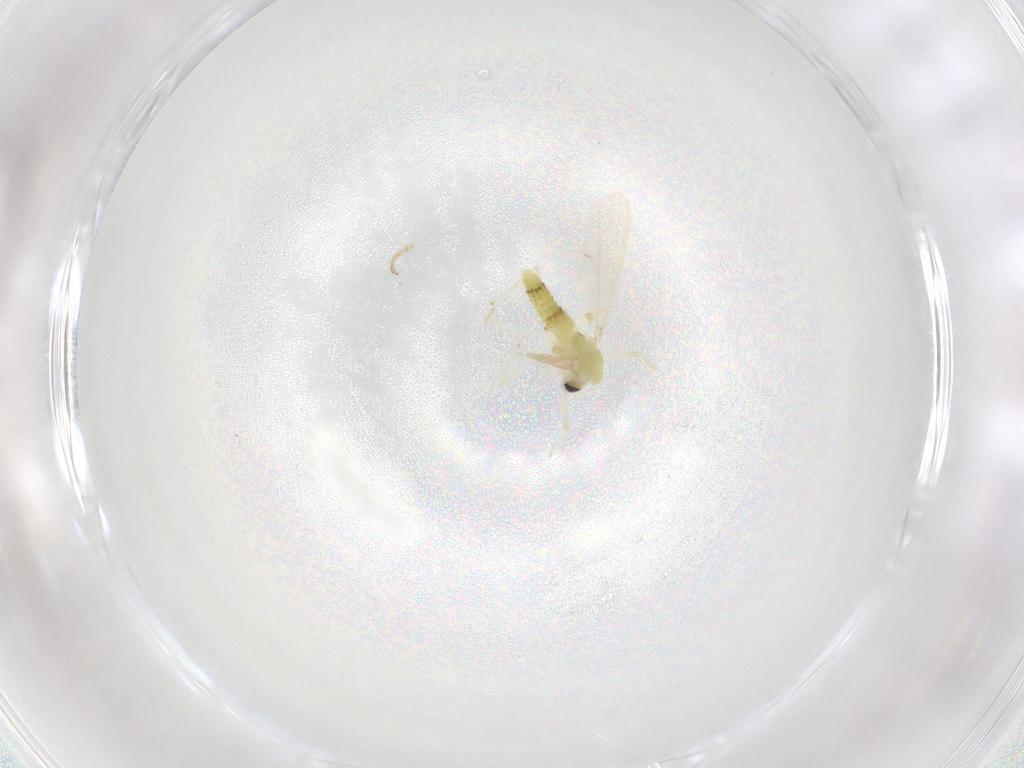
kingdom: Animalia
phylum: Arthropoda
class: Insecta
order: Diptera
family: Chironomidae
